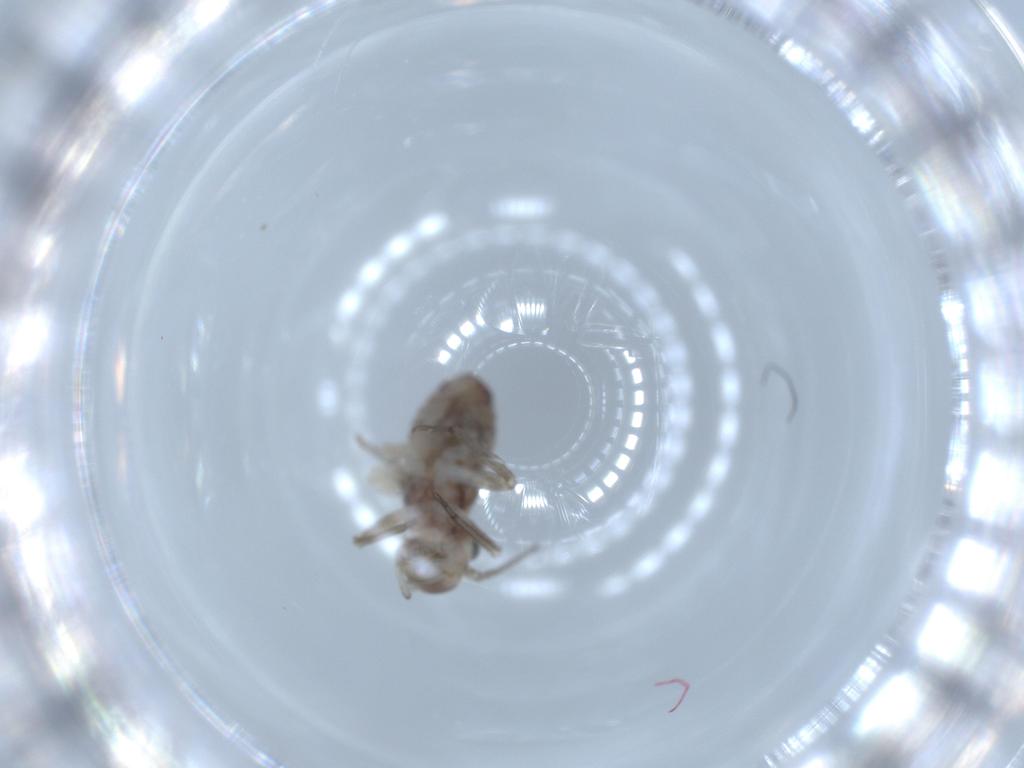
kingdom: Animalia
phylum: Arthropoda
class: Insecta
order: Psocodea
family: Psocidae
